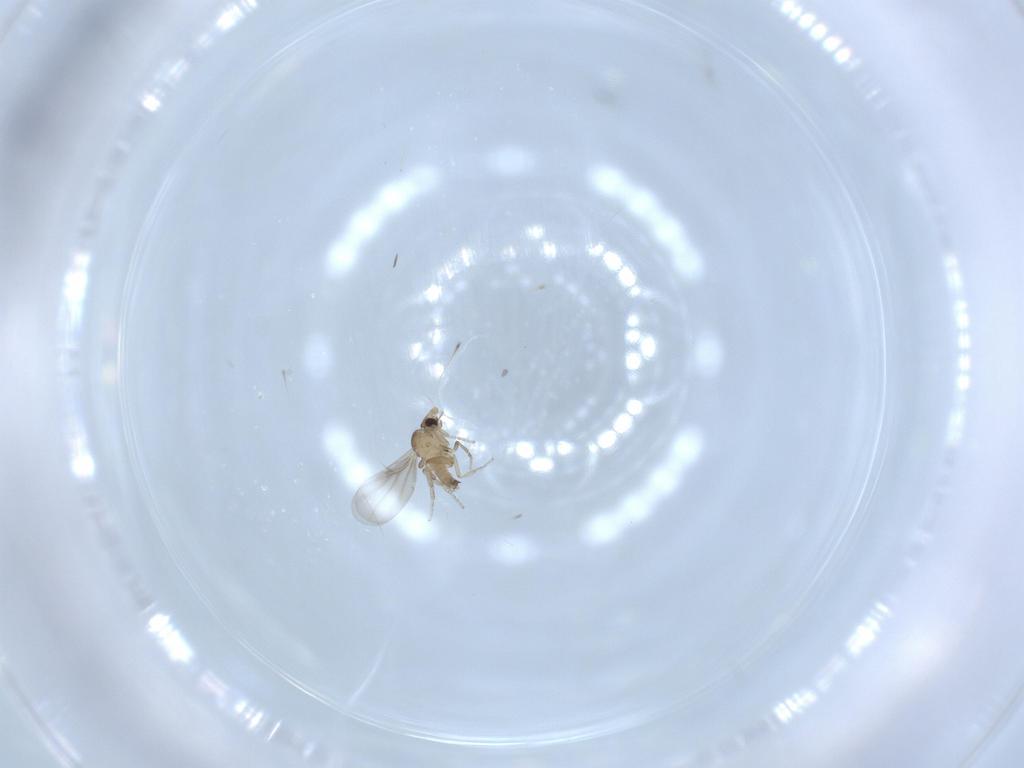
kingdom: Animalia
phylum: Arthropoda
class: Insecta
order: Diptera
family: Cecidomyiidae
